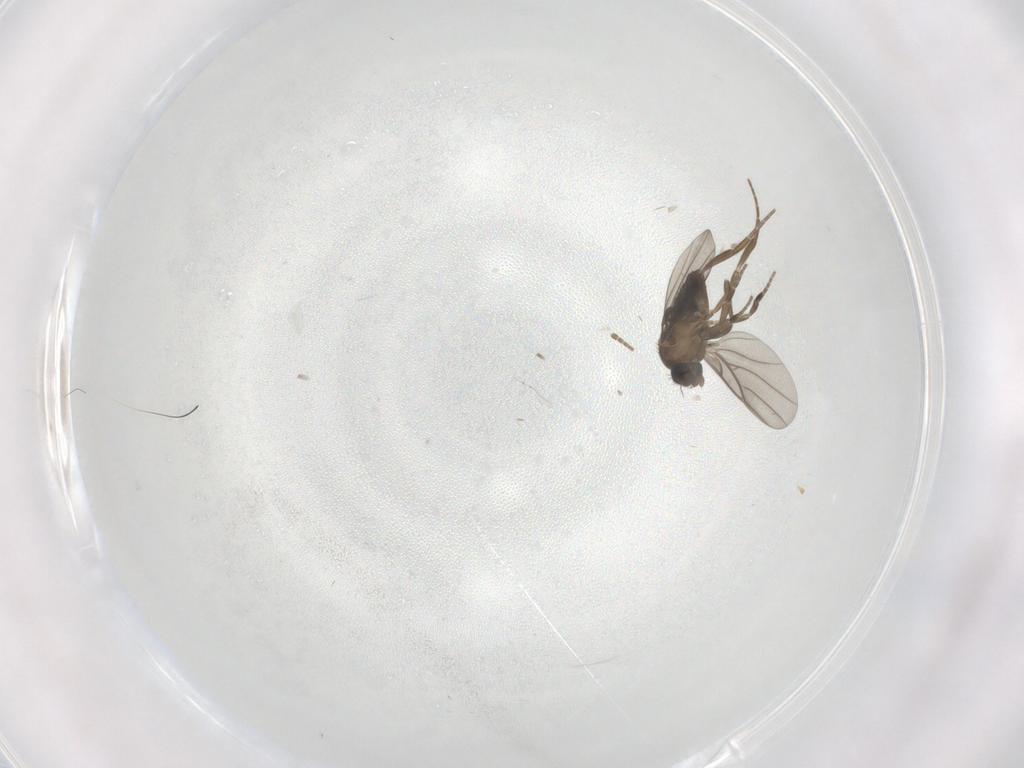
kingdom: Animalia
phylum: Arthropoda
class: Insecta
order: Diptera
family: Phoridae
